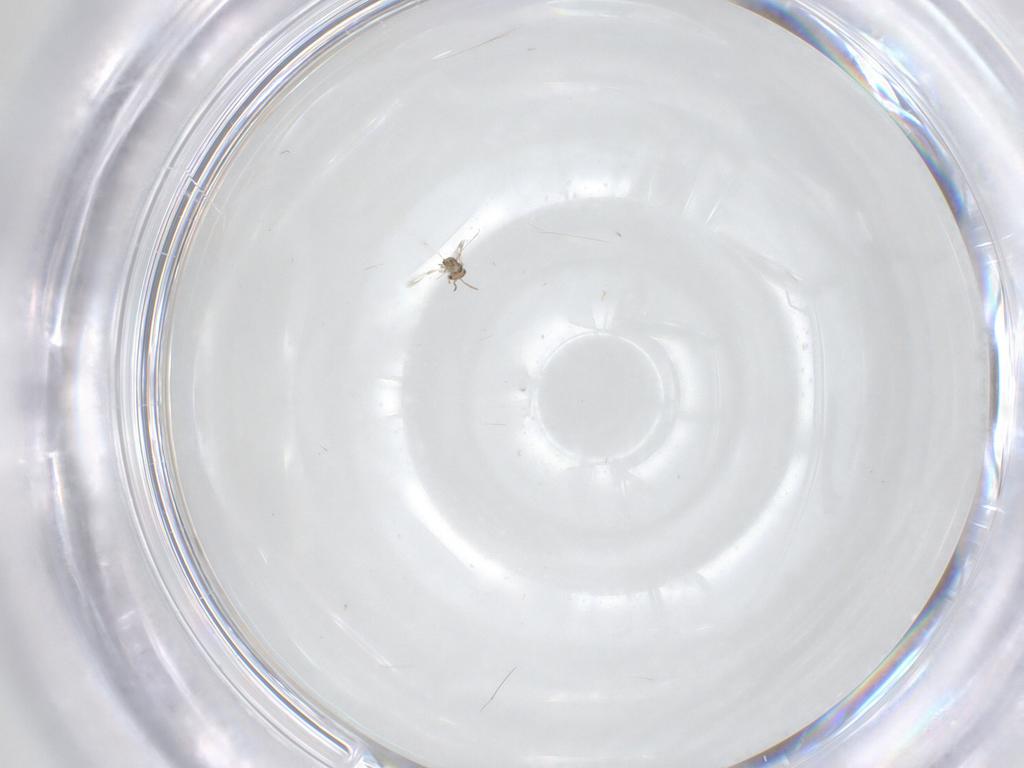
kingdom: Animalia
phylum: Arthropoda
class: Insecta
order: Hymenoptera
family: Aphelinidae
